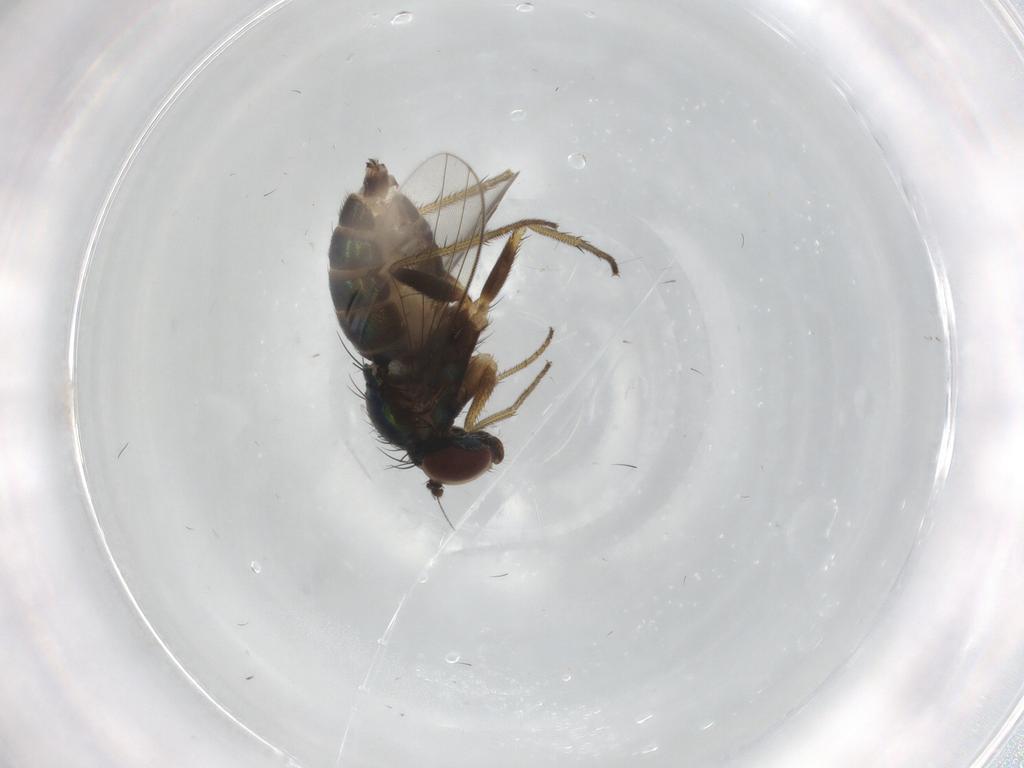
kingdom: Animalia
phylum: Arthropoda
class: Insecta
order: Diptera
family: Phoridae
